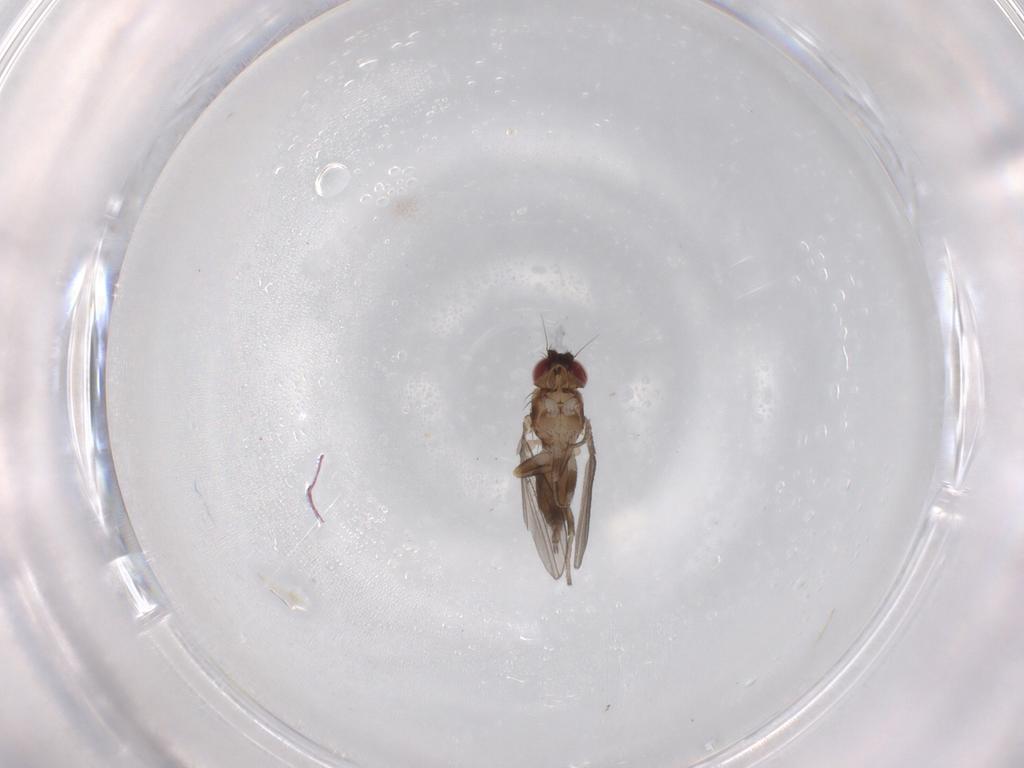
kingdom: Animalia
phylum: Arthropoda
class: Insecta
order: Diptera
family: Milichiidae
